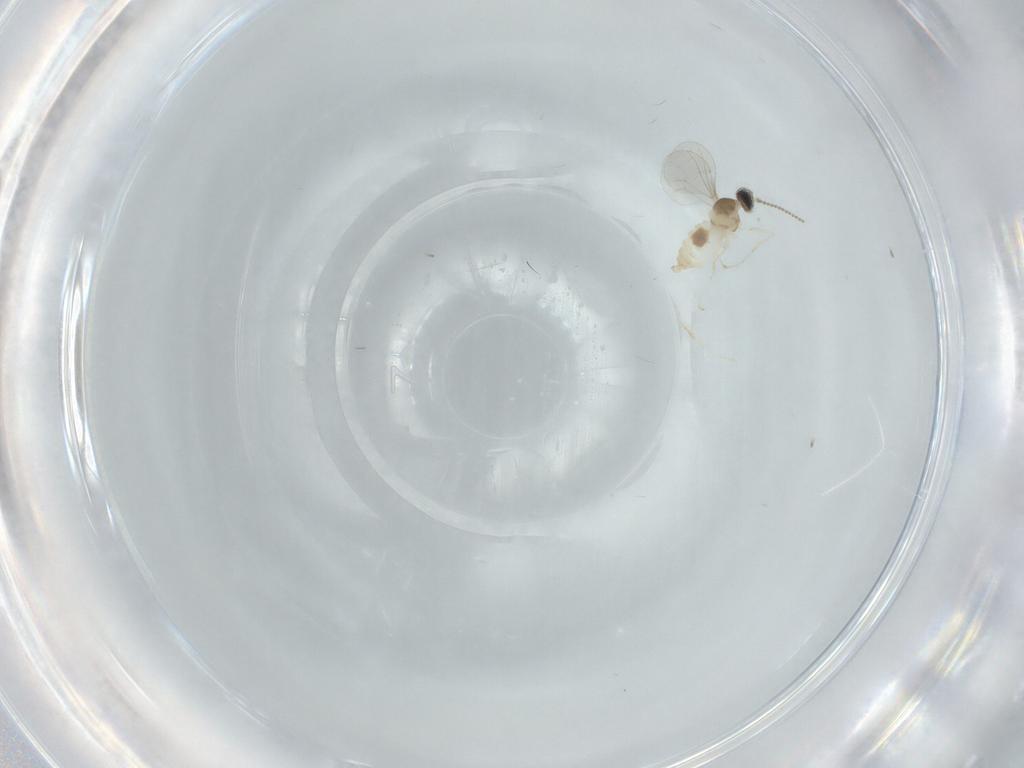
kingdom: Animalia
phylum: Arthropoda
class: Insecta
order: Diptera
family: Cecidomyiidae
